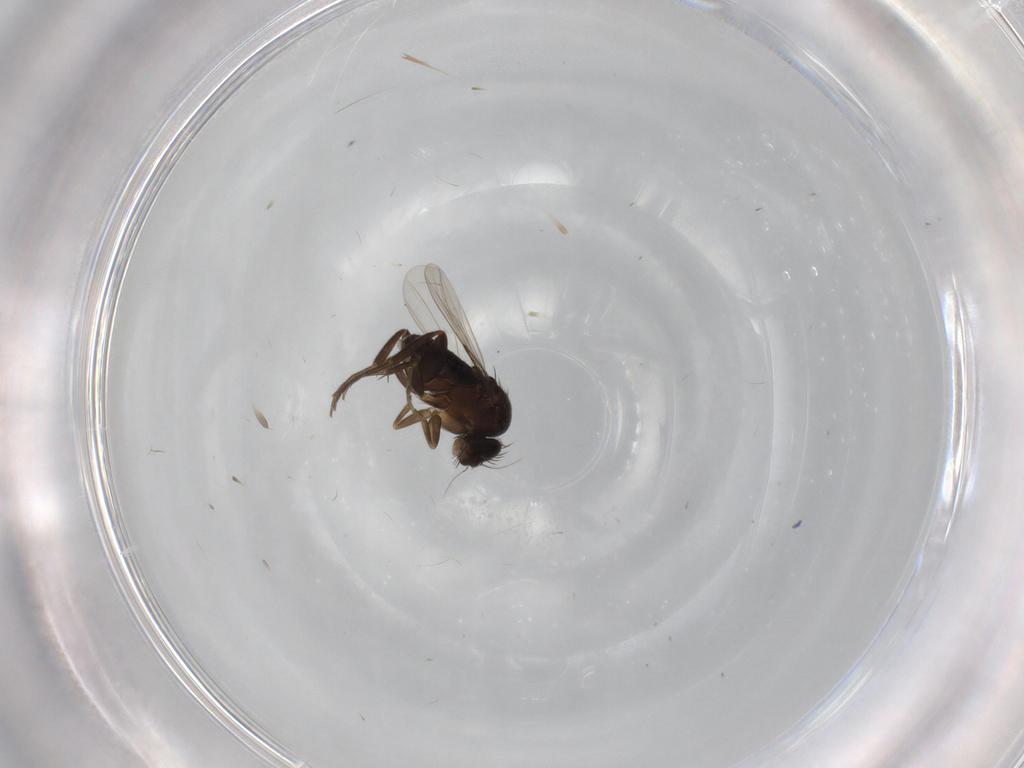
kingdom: Animalia
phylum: Arthropoda
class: Insecta
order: Diptera
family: Phoridae
